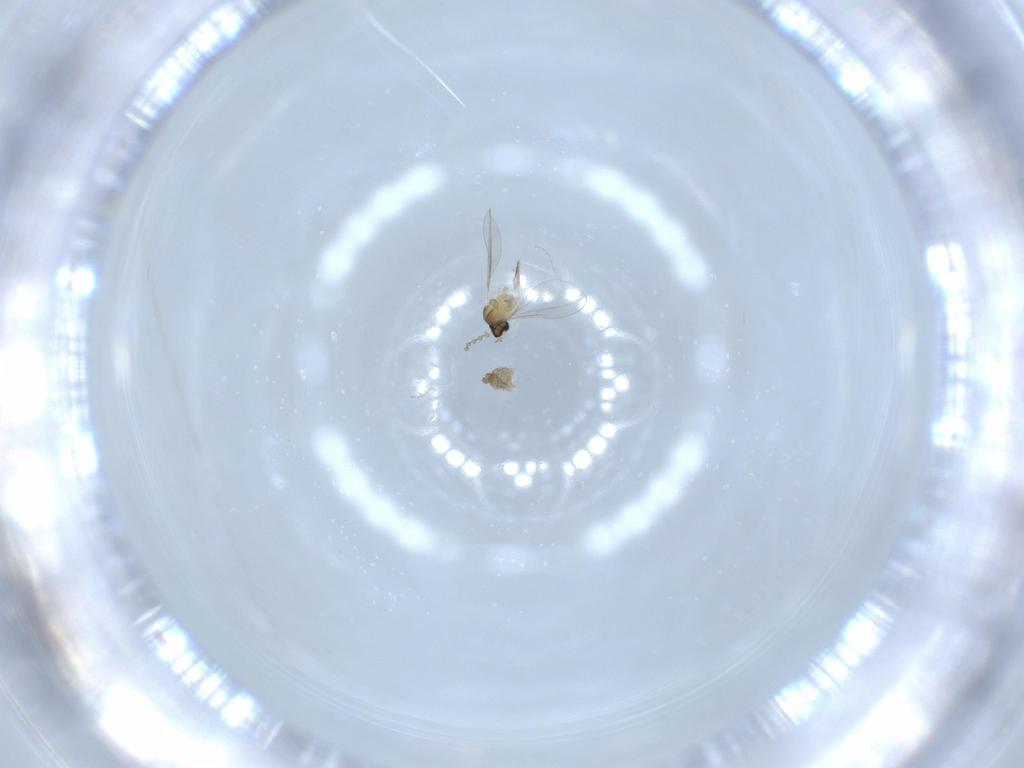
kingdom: Animalia
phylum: Arthropoda
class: Insecta
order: Diptera
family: Cecidomyiidae
